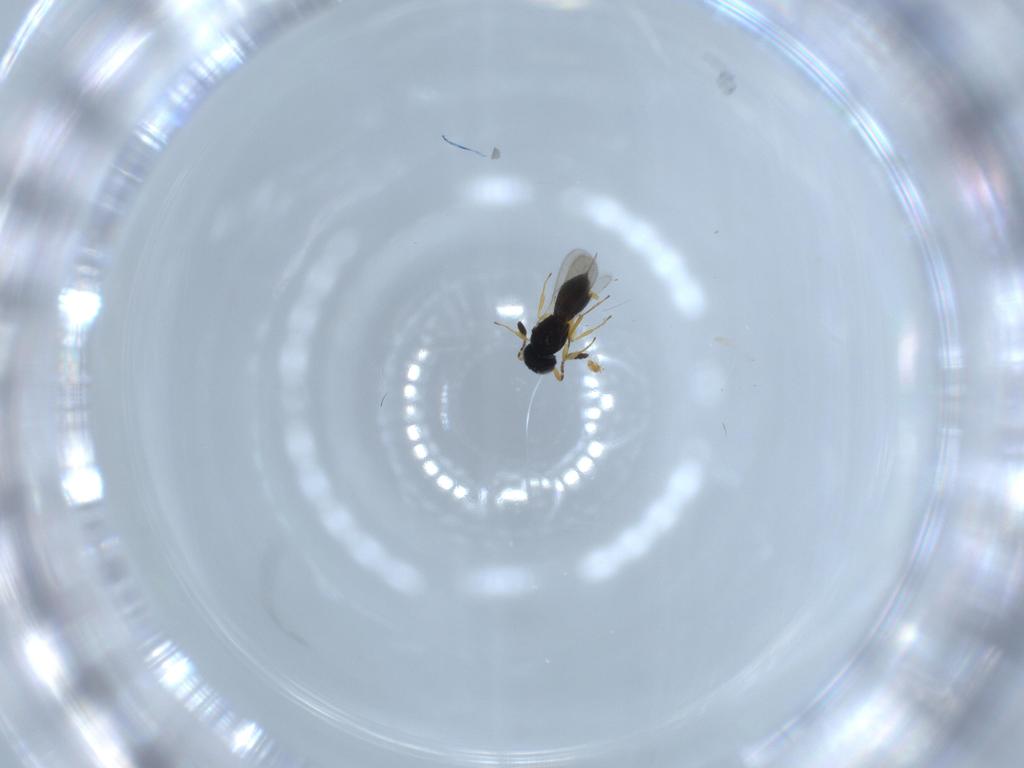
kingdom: Animalia
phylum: Arthropoda
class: Insecta
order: Hymenoptera
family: Scelionidae
